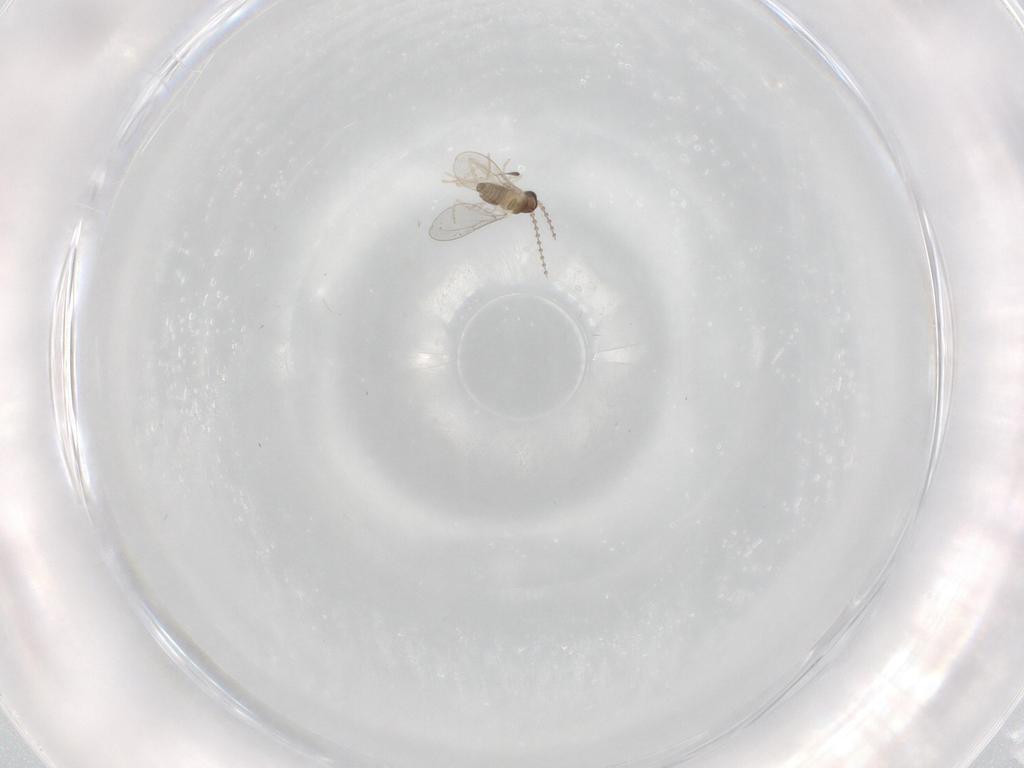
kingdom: Animalia
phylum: Arthropoda
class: Insecta
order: Diptera
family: Cecidomyiidae
